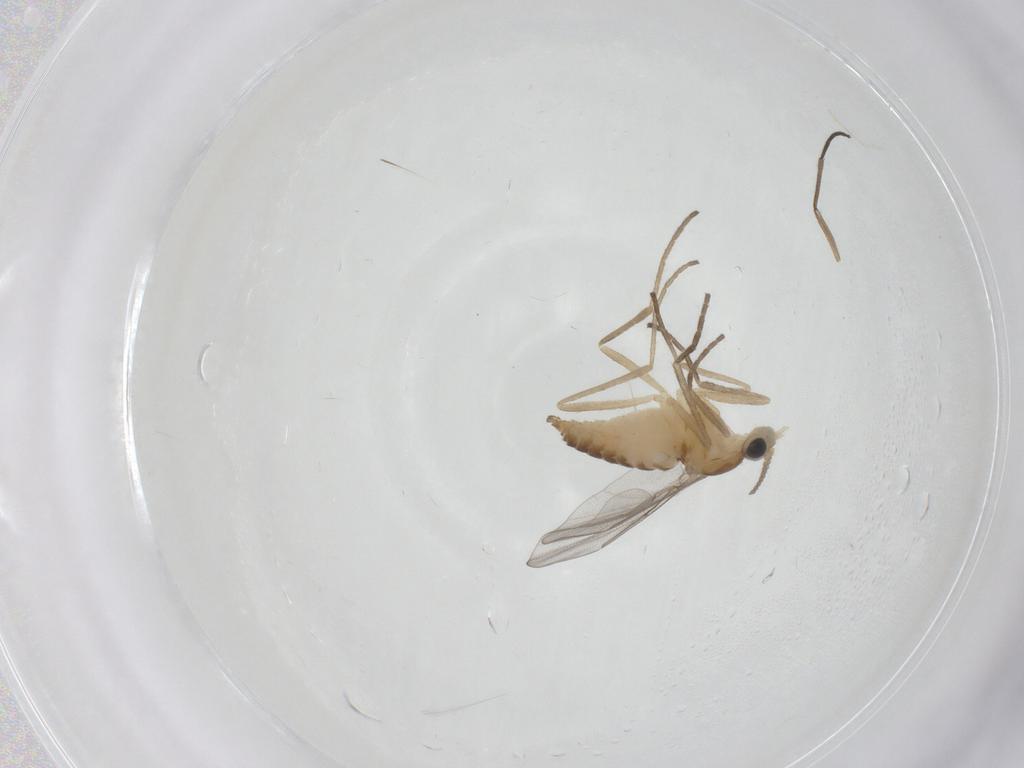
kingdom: Animalia
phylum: Arthropoda
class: Insecta
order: Diptera
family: Cecidomyiidae
